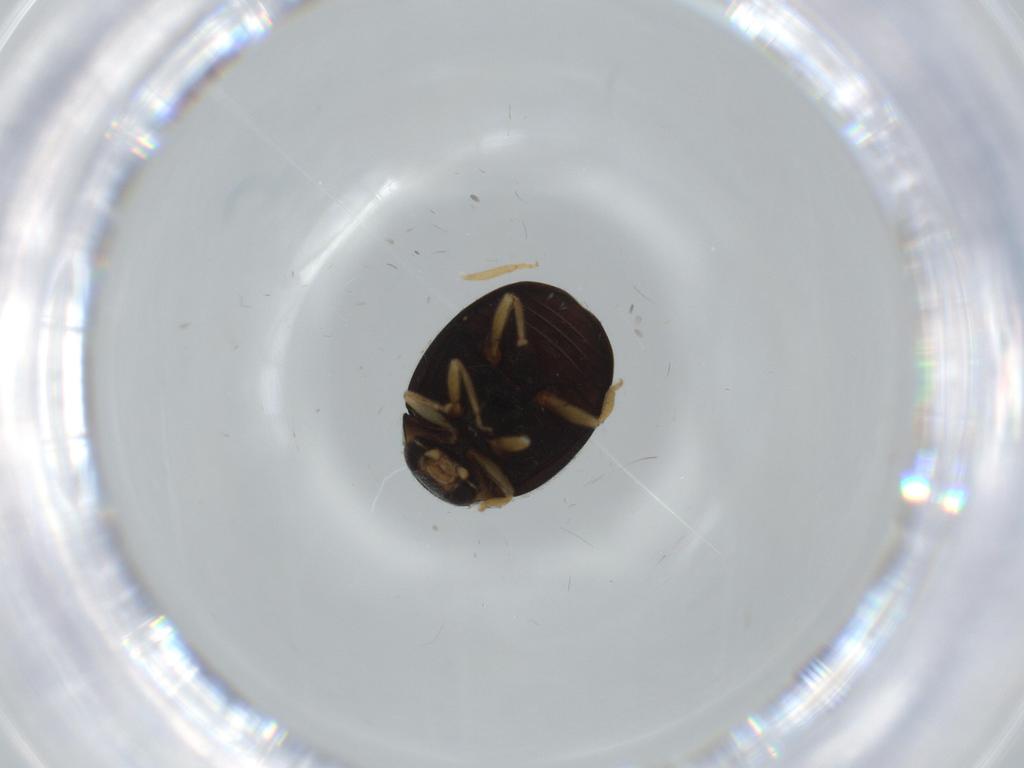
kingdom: Animalia
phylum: Arthropoda
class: Insecta
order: Coleoptera
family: Coccinellidae
